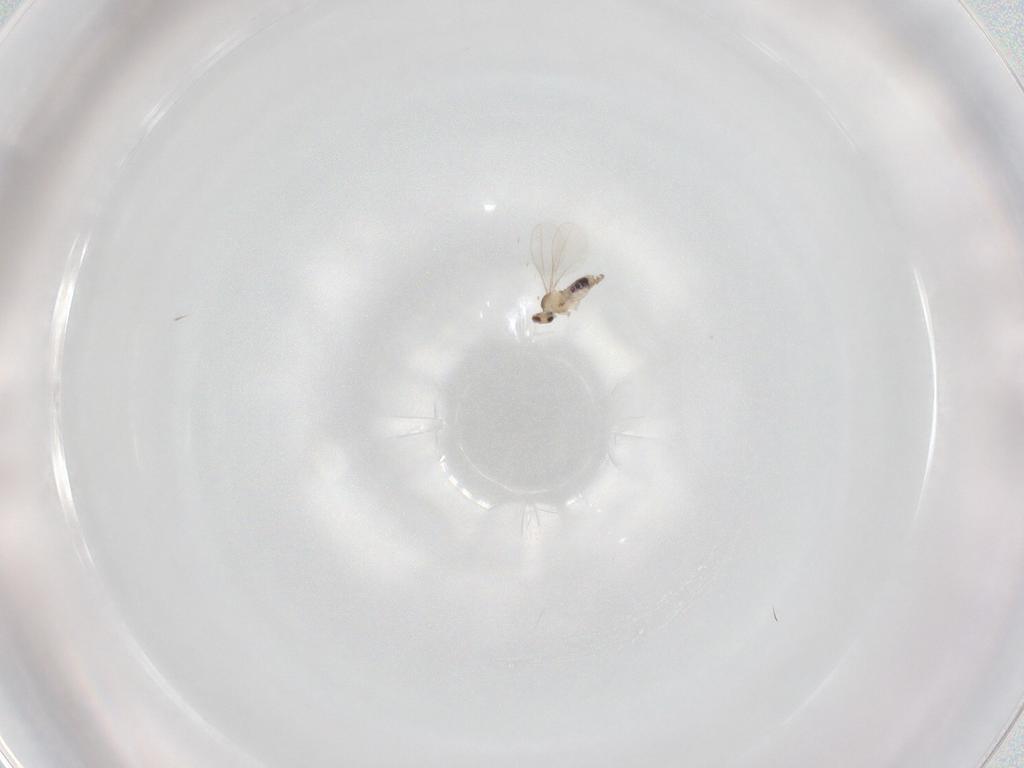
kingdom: Animalia
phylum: Arthropoda
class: Insecta
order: Diptera
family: Cecidomyiidae
